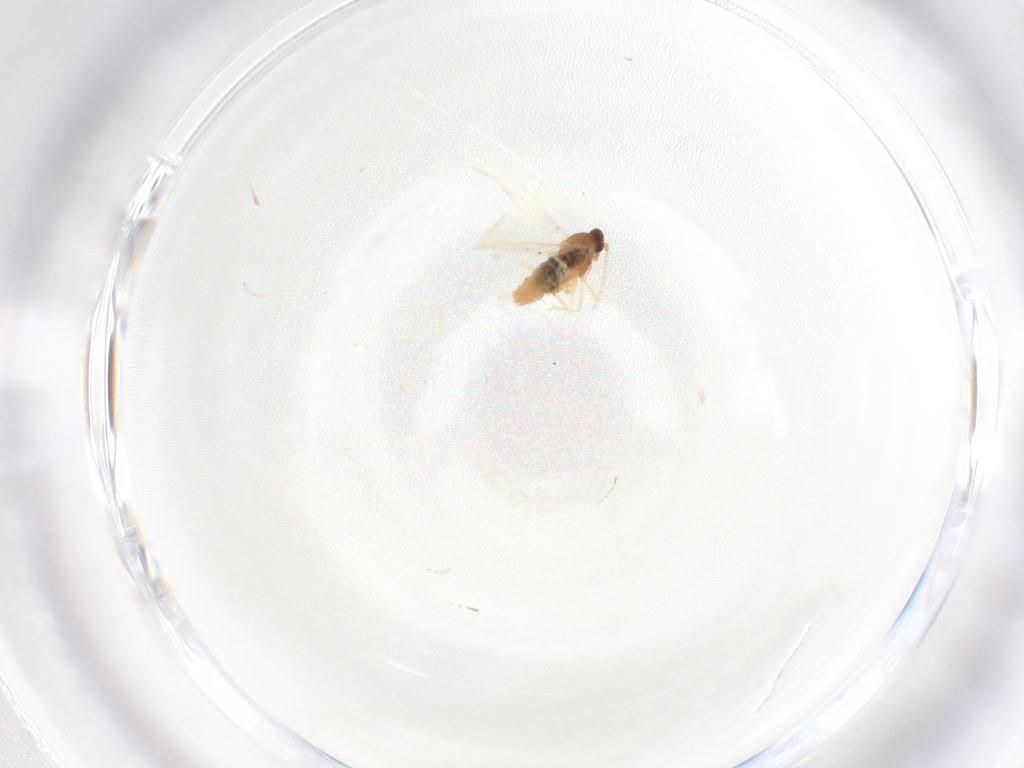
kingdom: Animalia
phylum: Arthropoda
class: Insecta
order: Diptera
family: Cecidomyiidae
